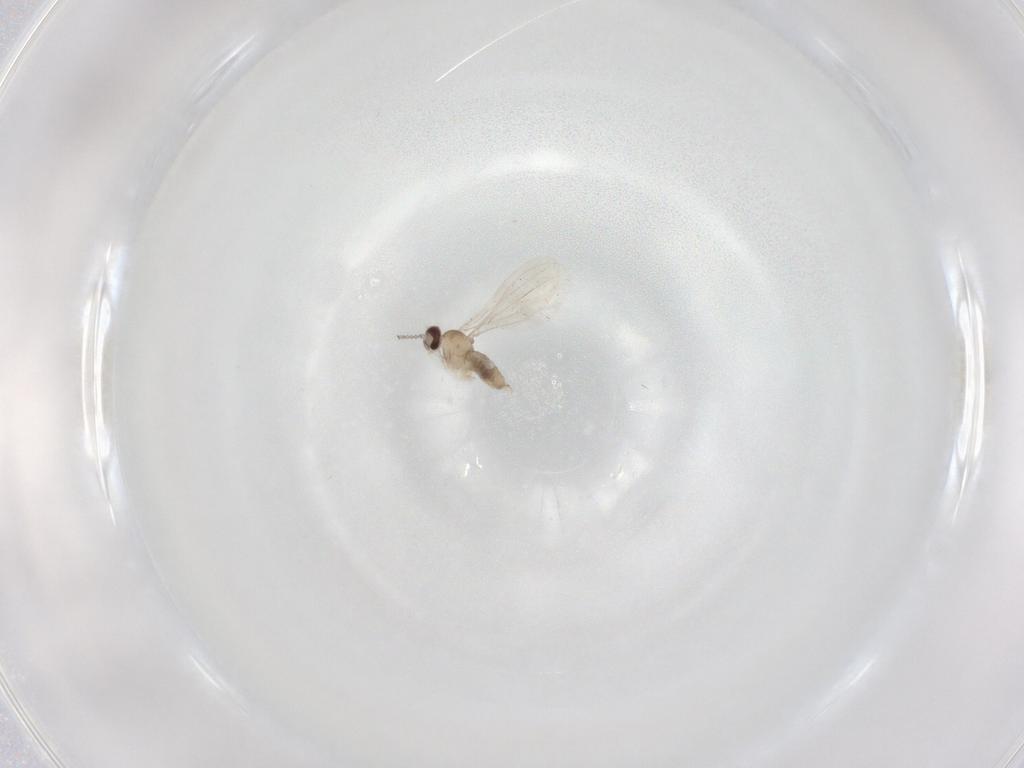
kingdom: Animalia
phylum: Arthropoda
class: Insecta
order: Diptera
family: Cecidomyiidae
